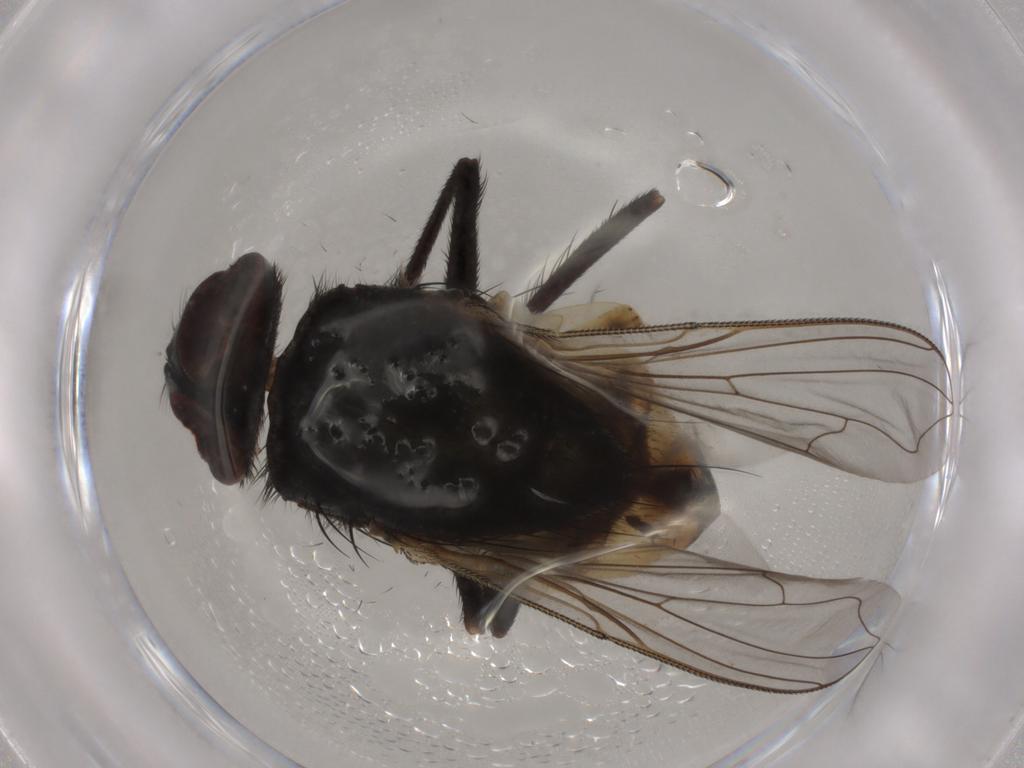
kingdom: Animalia
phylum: Arthropoda
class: Insecta
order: Diptera
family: Muscidae
